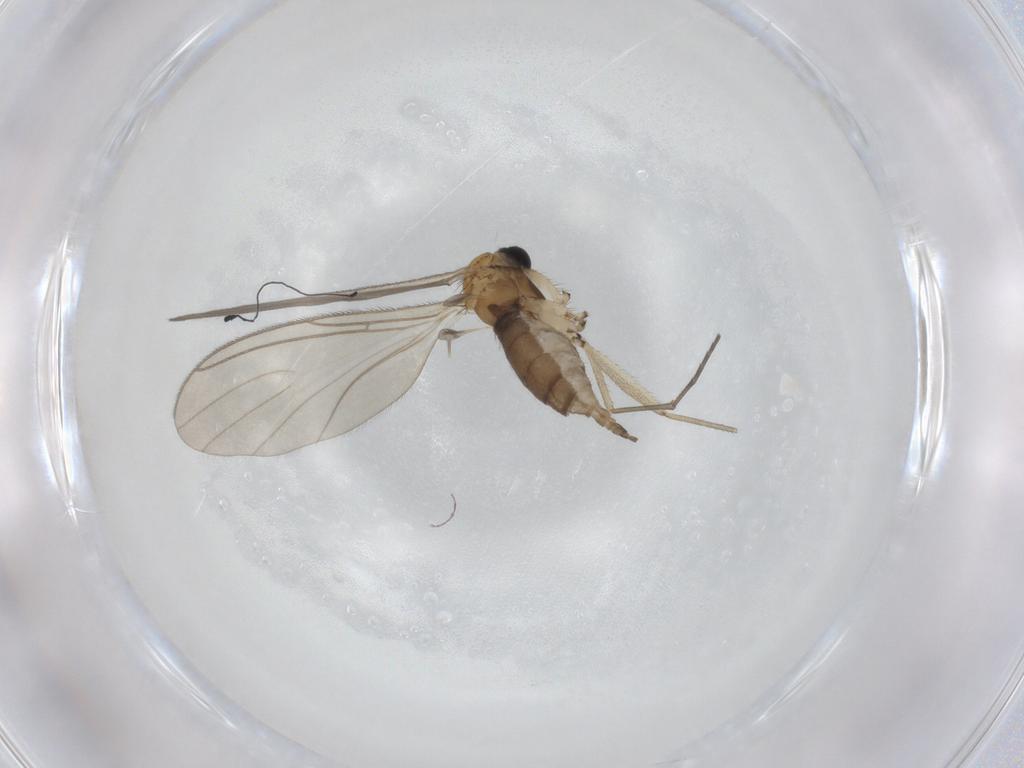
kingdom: Animalia
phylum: Arthropoda
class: Insecta
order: Diptera
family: Sciaridae
